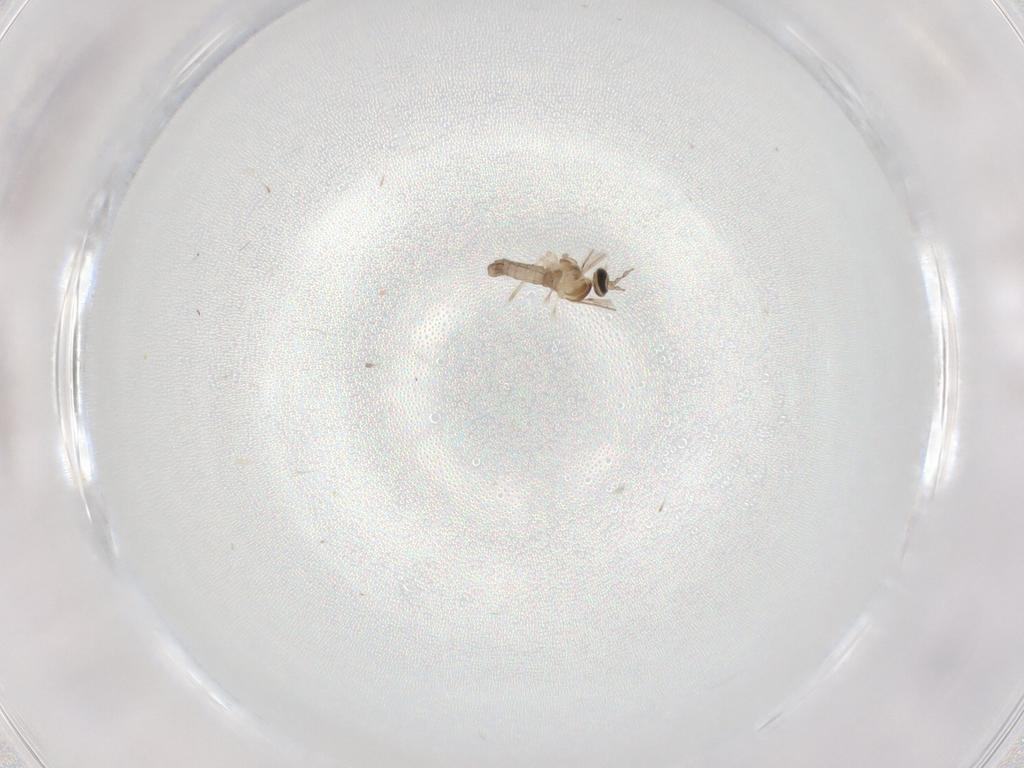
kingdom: Animalia
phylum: Arthropoda
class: Insecta
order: Diptera
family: Cecidomyiidae
